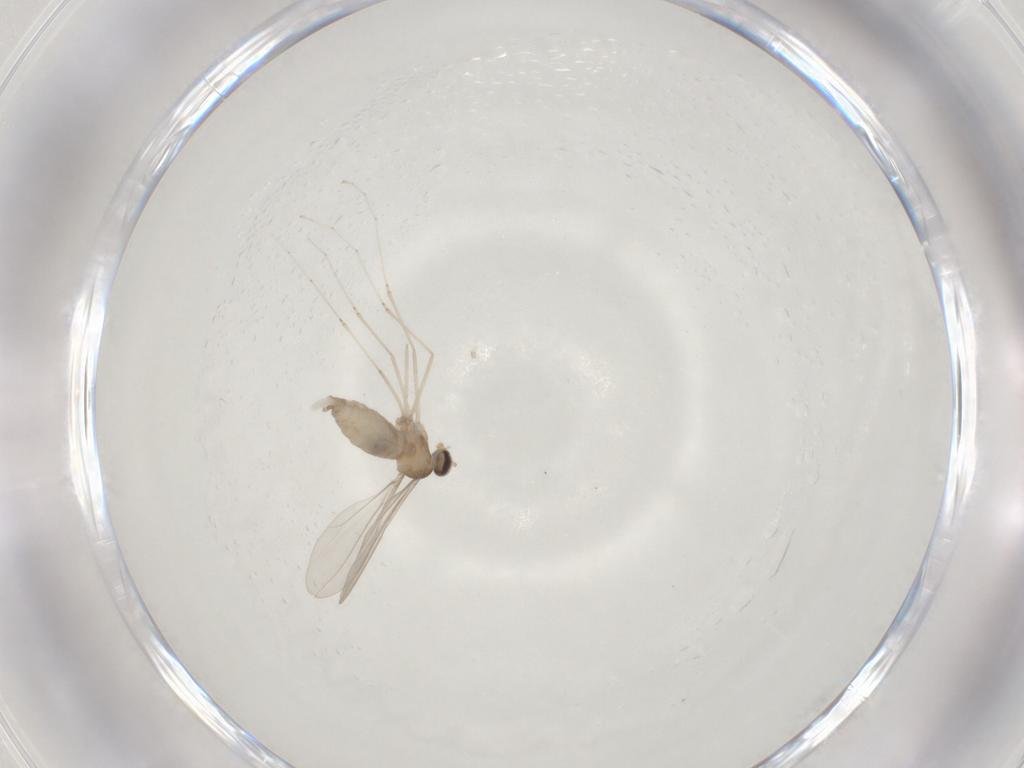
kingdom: Animalia
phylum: Arthropoda
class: Insecta
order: Diptera
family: Cecidomyiidae
